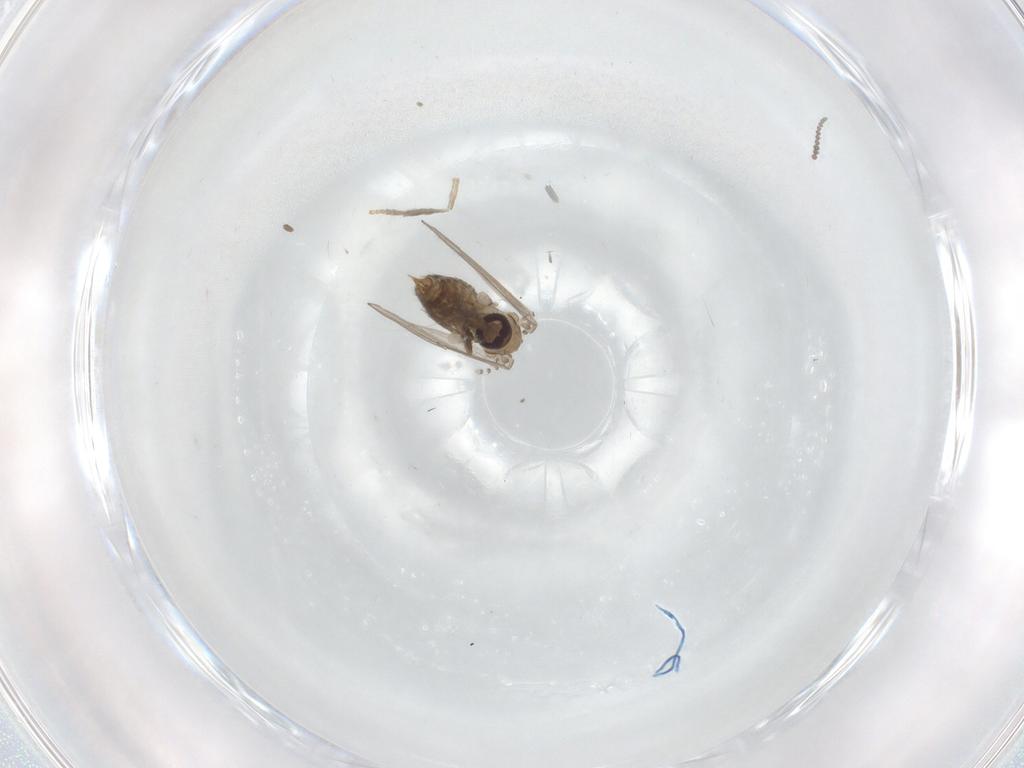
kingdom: Animalia
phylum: Arthropoda
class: Insecta
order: Diptera
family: Psychodidae
